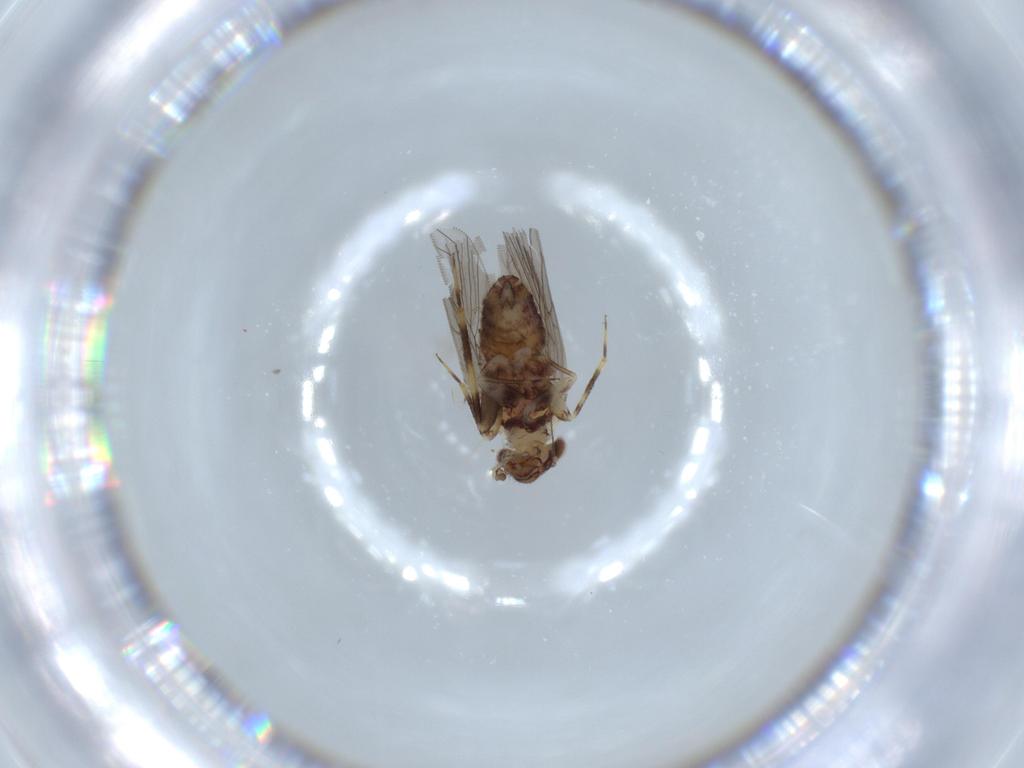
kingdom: Animalia
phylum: Arthropoda
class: Insecta
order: Psocodea
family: Lepidopsocidae
